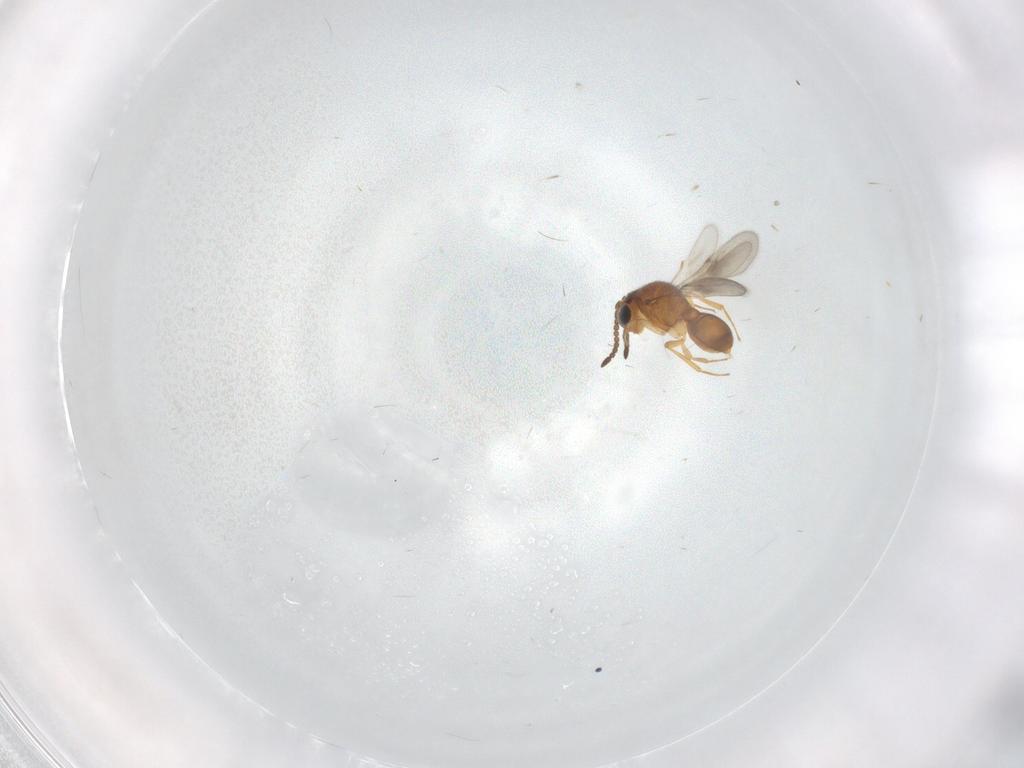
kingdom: Animalia
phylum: Arthropoda
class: Insecta
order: Hymenoptera
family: Scelionidae
